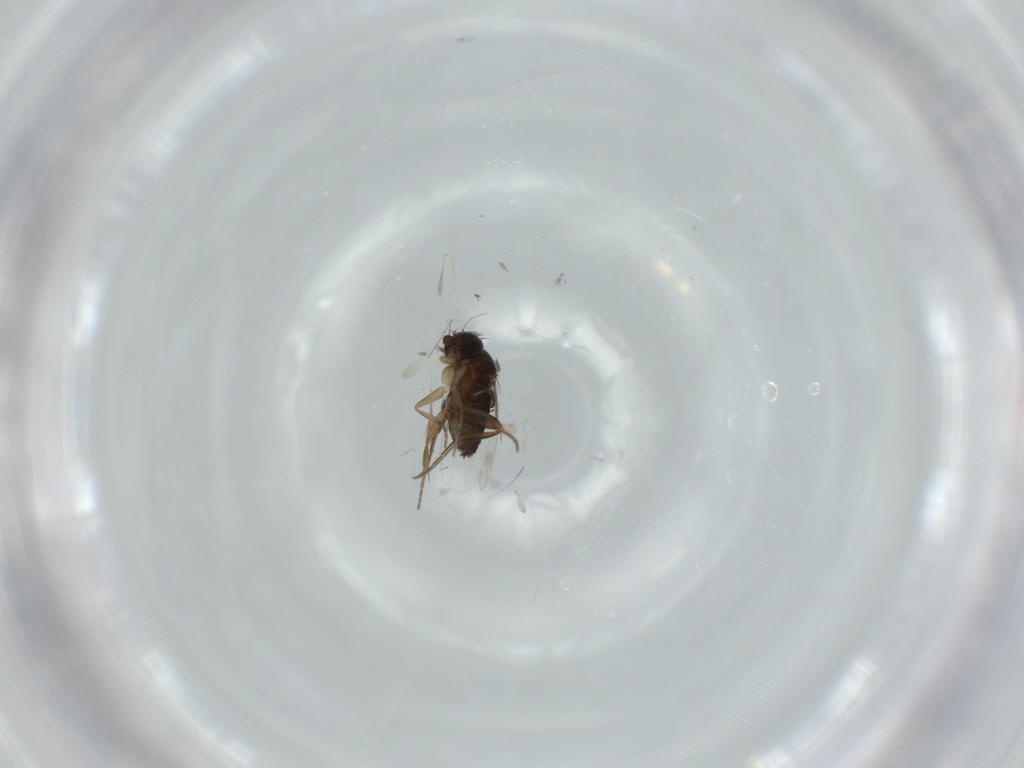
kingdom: Animalia
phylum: Arthropoda
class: Insecta
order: Diptera
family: Phoridae
